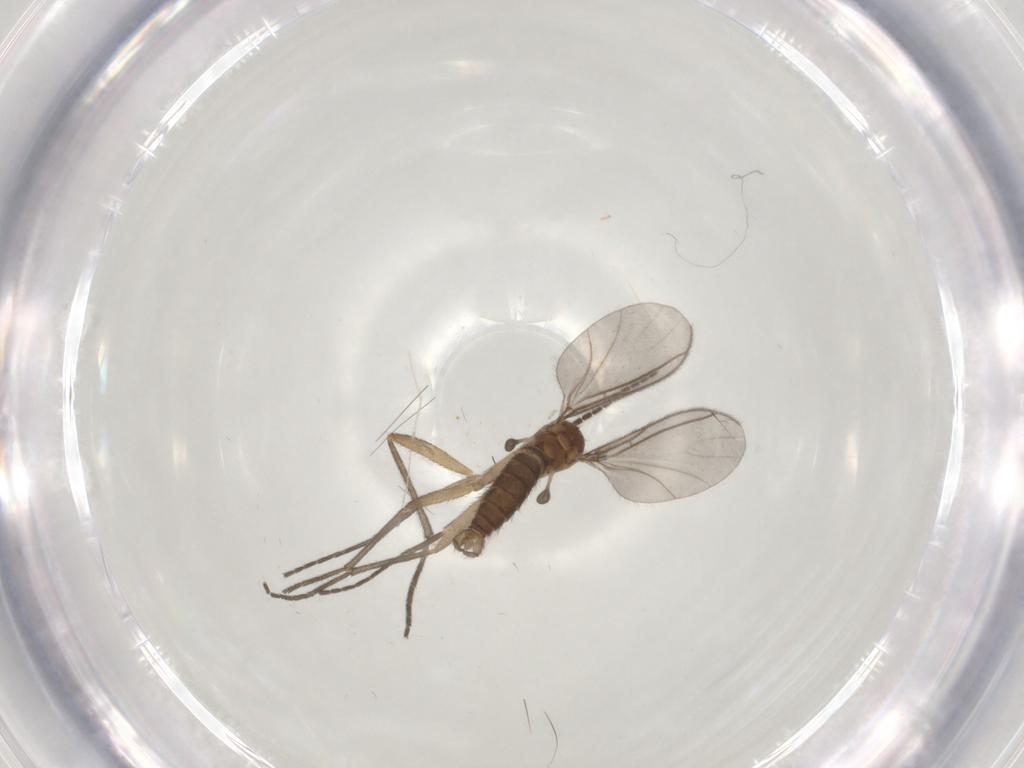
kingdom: Animalia
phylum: Arthropoda
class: Insecta
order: Diptera
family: Sciaridae
